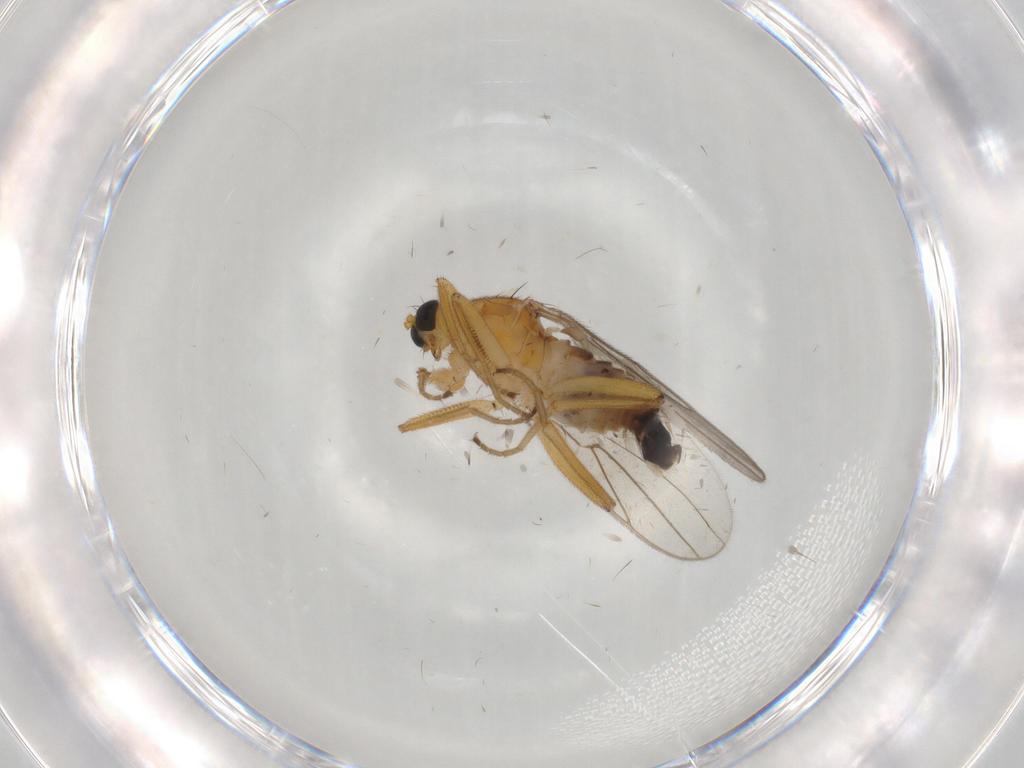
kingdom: Animalia
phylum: Arthropoda
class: Insecta
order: Diptera
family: Hybotidae
